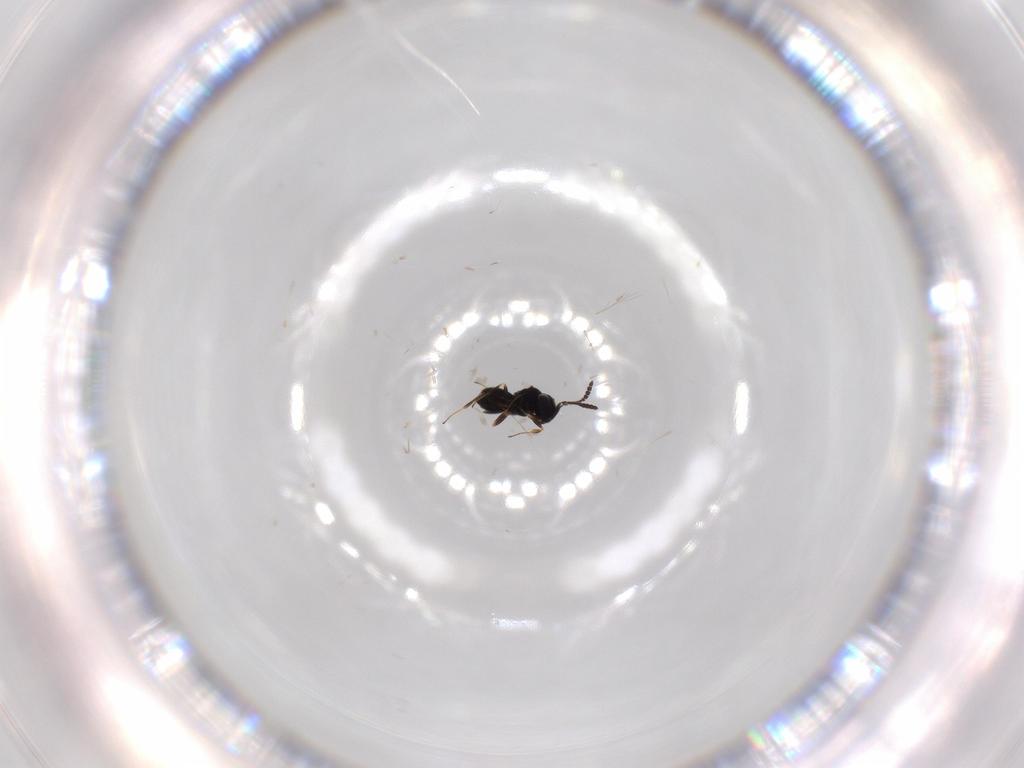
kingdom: Animalia
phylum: Arthropoda
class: Insecta
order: Hymenoptera
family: Scelionidae
